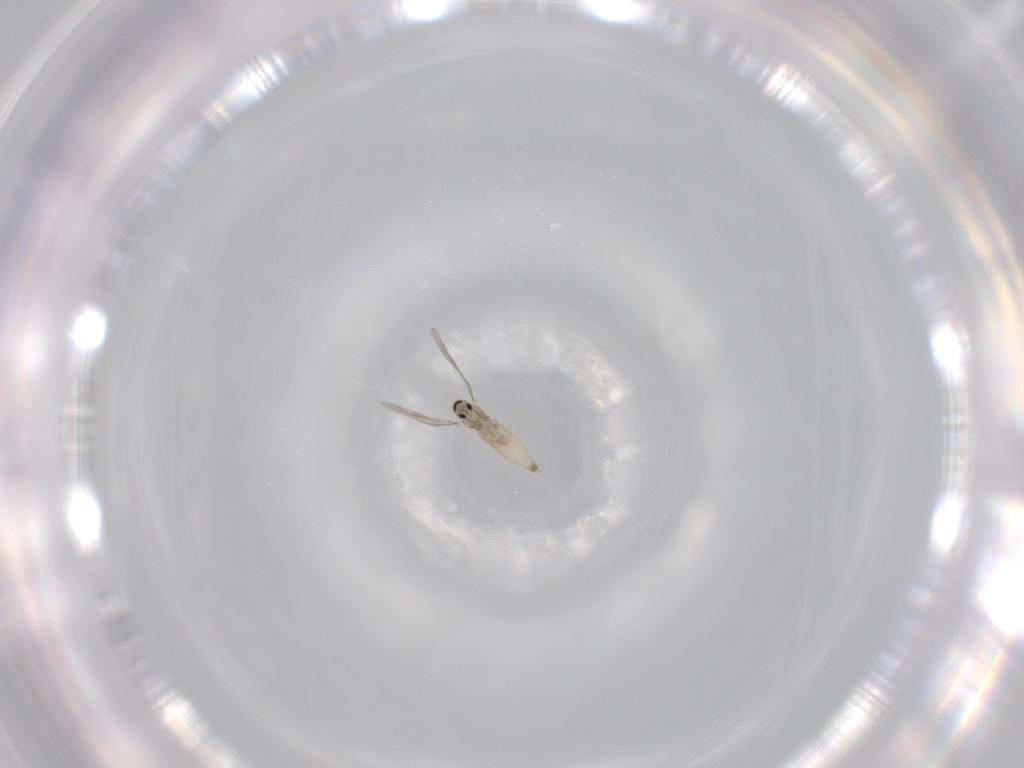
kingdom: Animalia
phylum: Arthropoda
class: Insecta
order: Diptera
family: Cecidomyiidae
